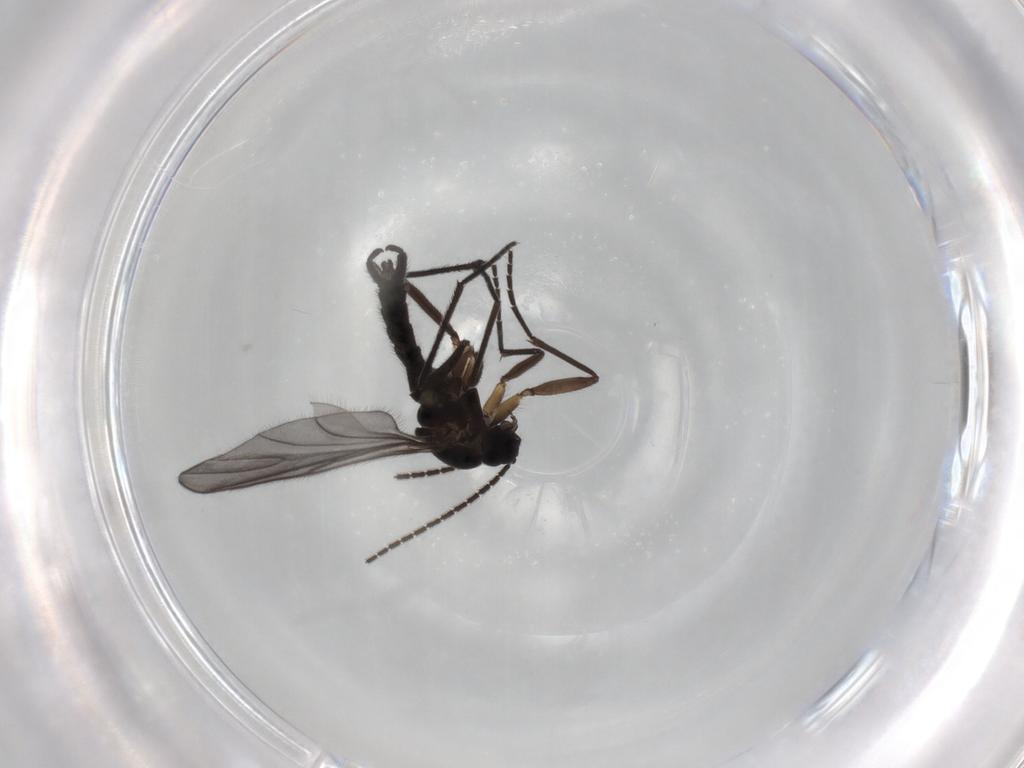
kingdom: Animalia
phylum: Arthropoda
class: Insecta
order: Diptera
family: Sciaridae
